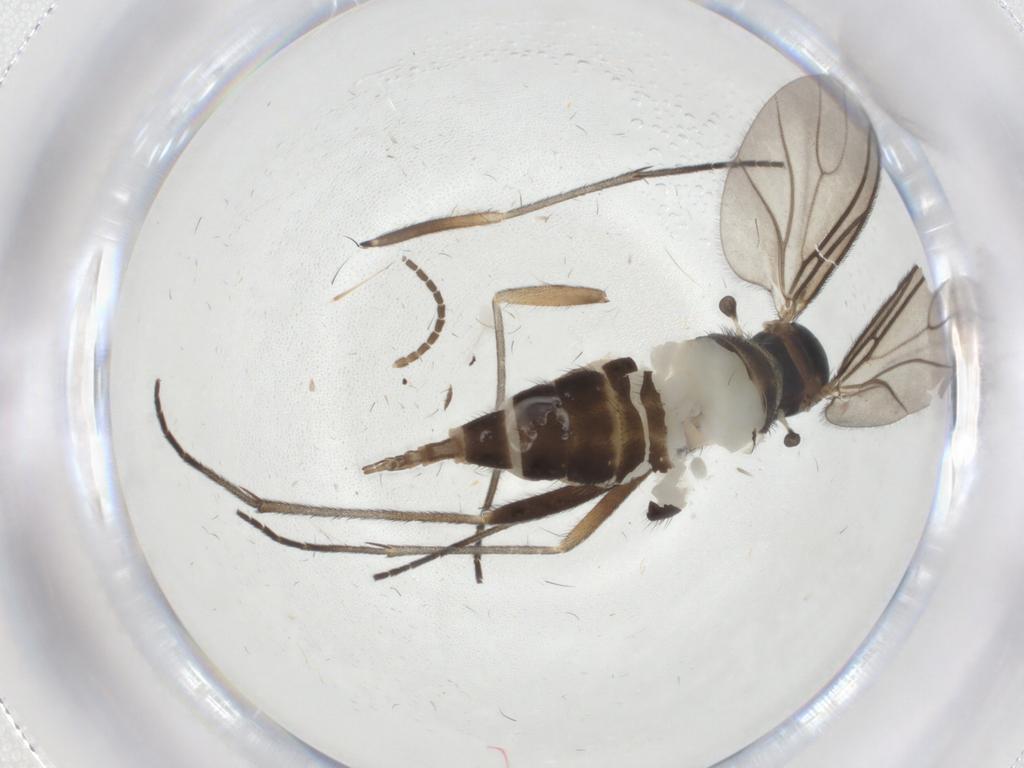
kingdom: Animalia
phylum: Arthropoda
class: Insecta
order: Diptera
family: Sciaridae
